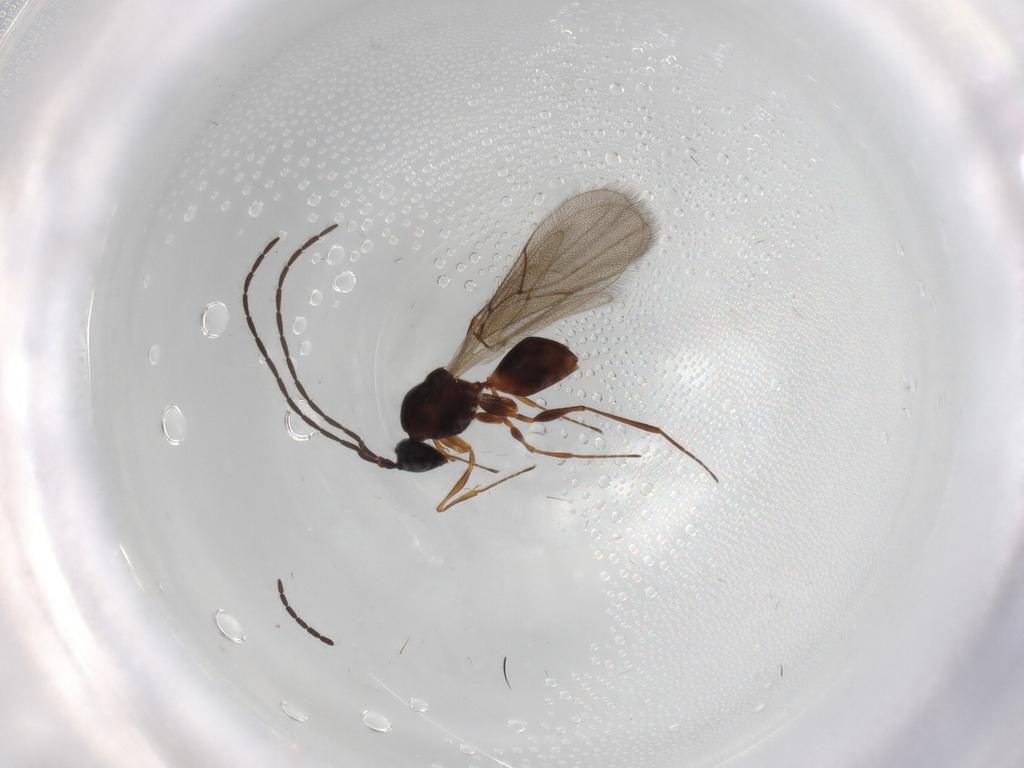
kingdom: Animalia
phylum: Arthropoda
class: Insecta
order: Hymenoptera
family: Figitidae
